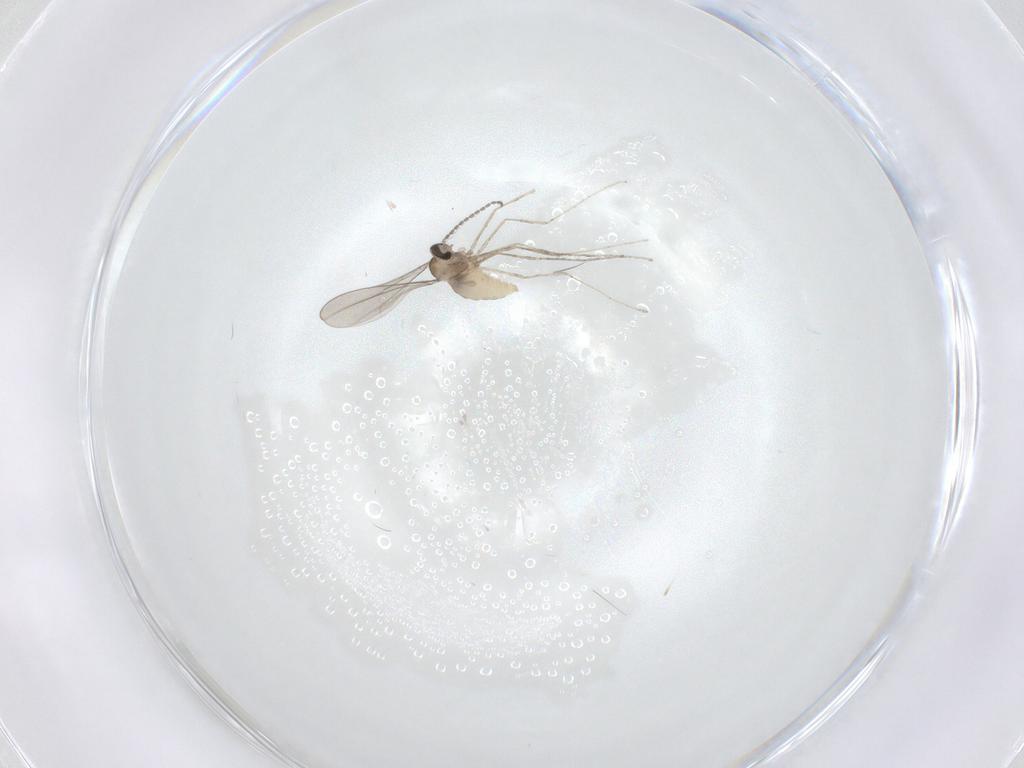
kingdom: Animalia
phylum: Arthropoda
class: Insecta
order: Diptera
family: Cecidomyiidae
